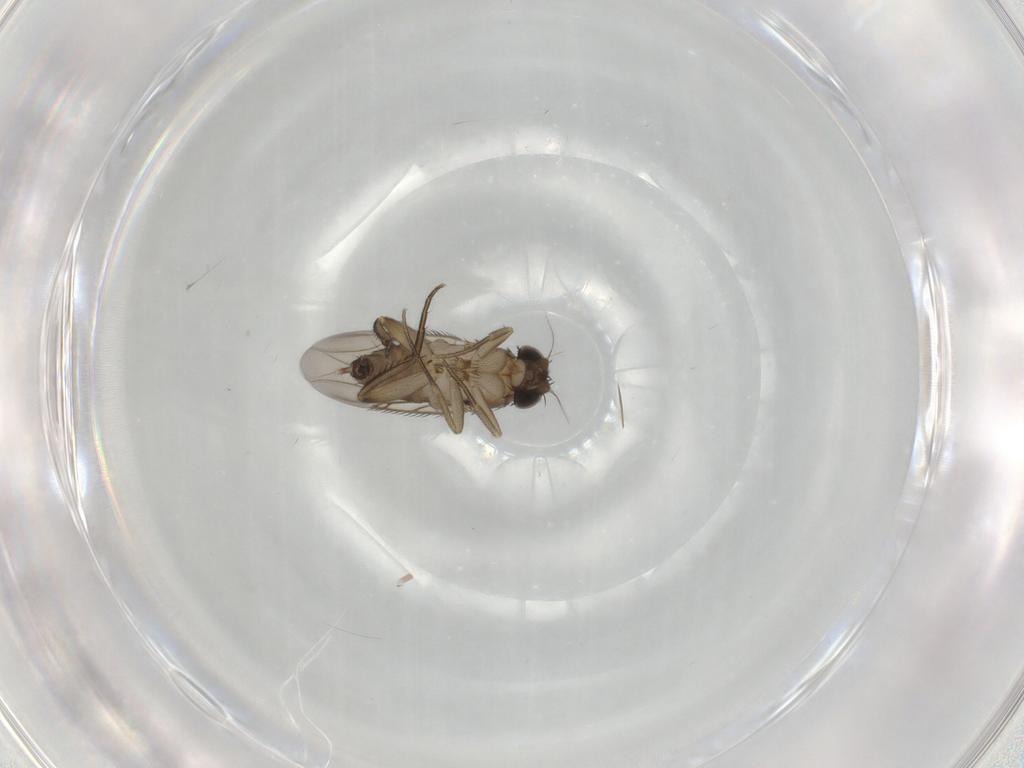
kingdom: Animalia
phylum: Arthropoda
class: Insecta
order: Diptera
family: Phoridae
